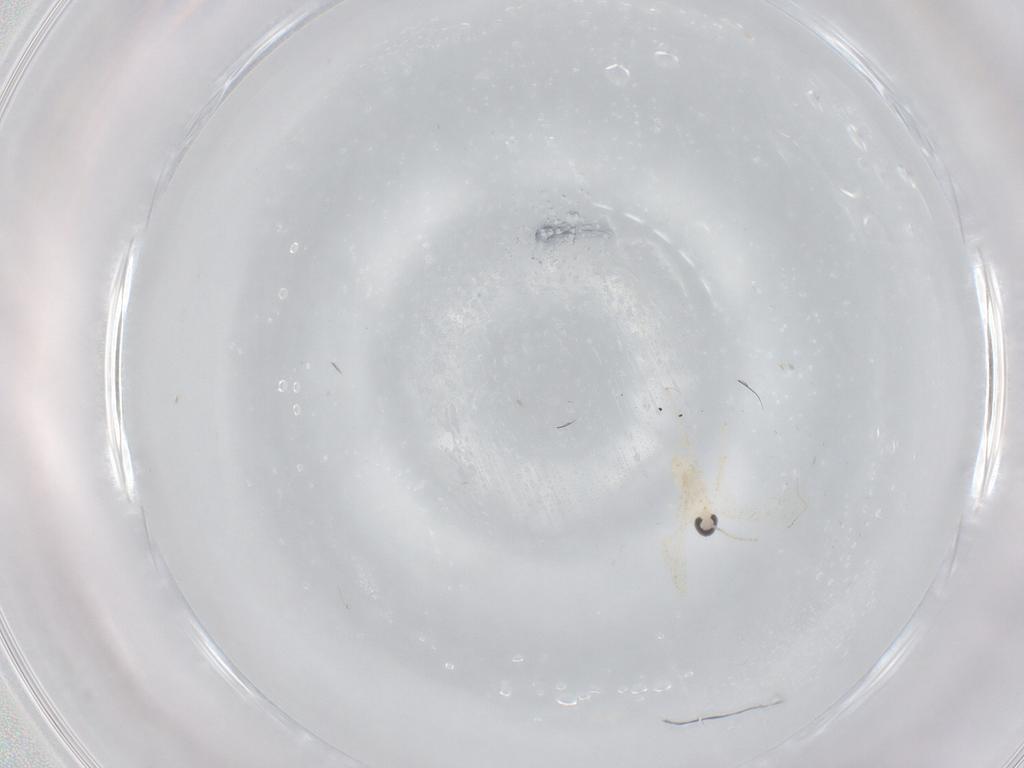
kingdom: Animalia
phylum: Arthropoda
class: Insecta
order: Diptera
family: Cecidomyiidae
